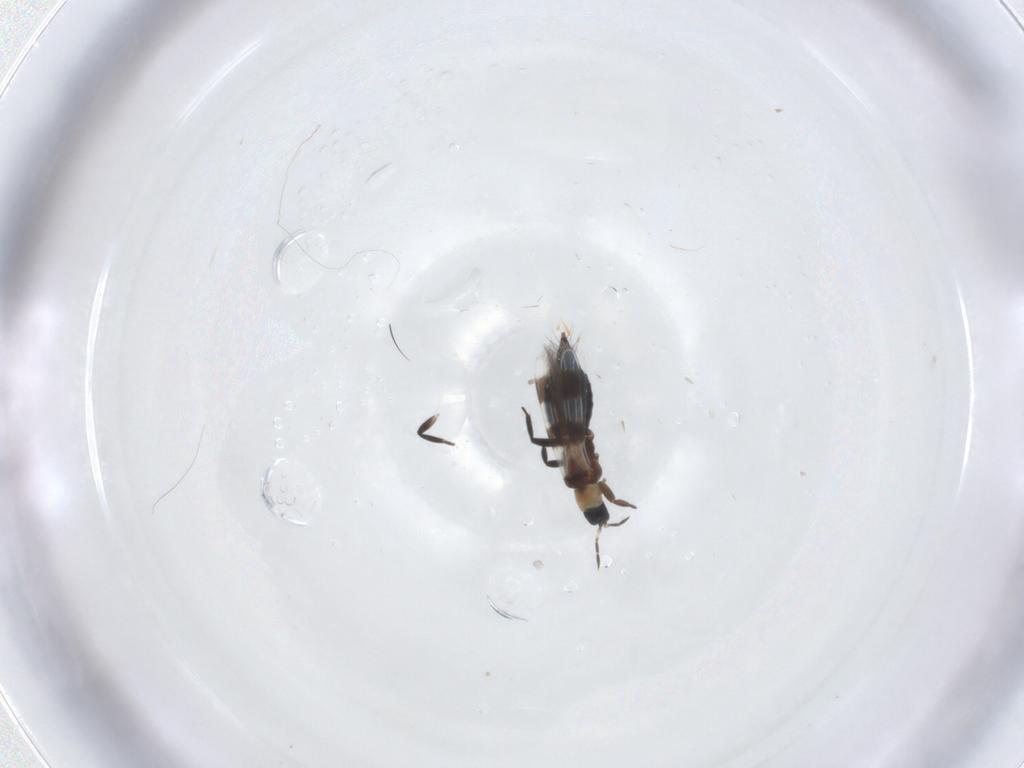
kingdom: Animalia
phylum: Arthropoda
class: Insecta
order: Thysanoptera
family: Aeolothripidae
